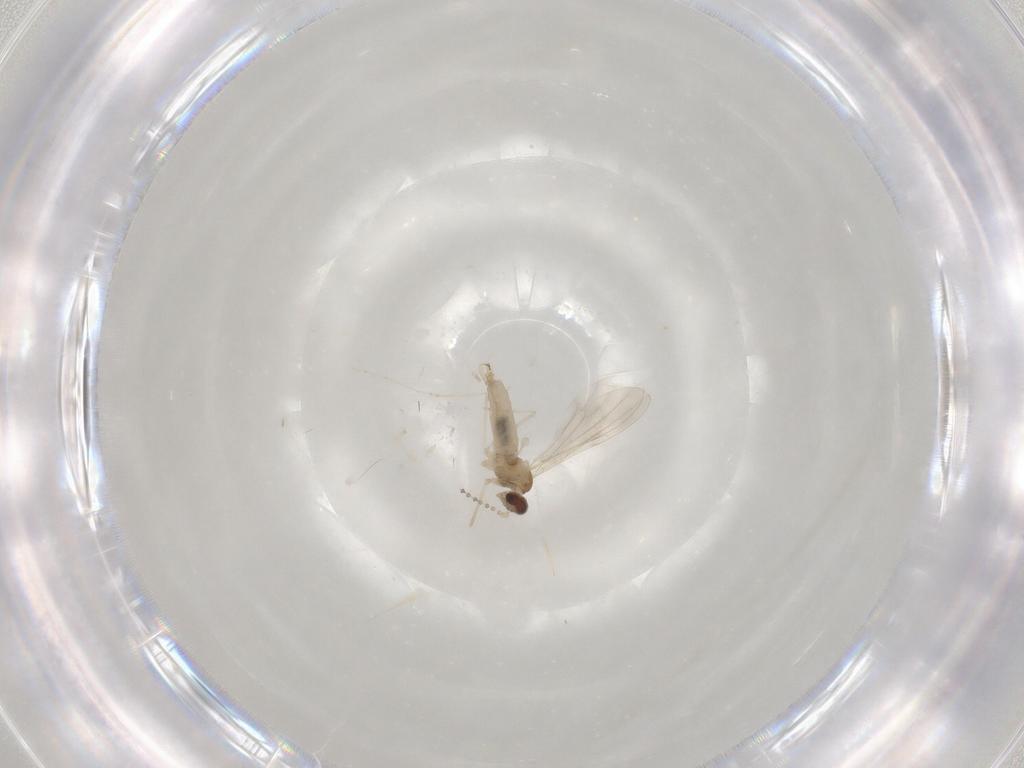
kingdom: Animalia
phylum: Arthropoda
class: Insecta
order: Diptera
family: Cecidomyiidae
